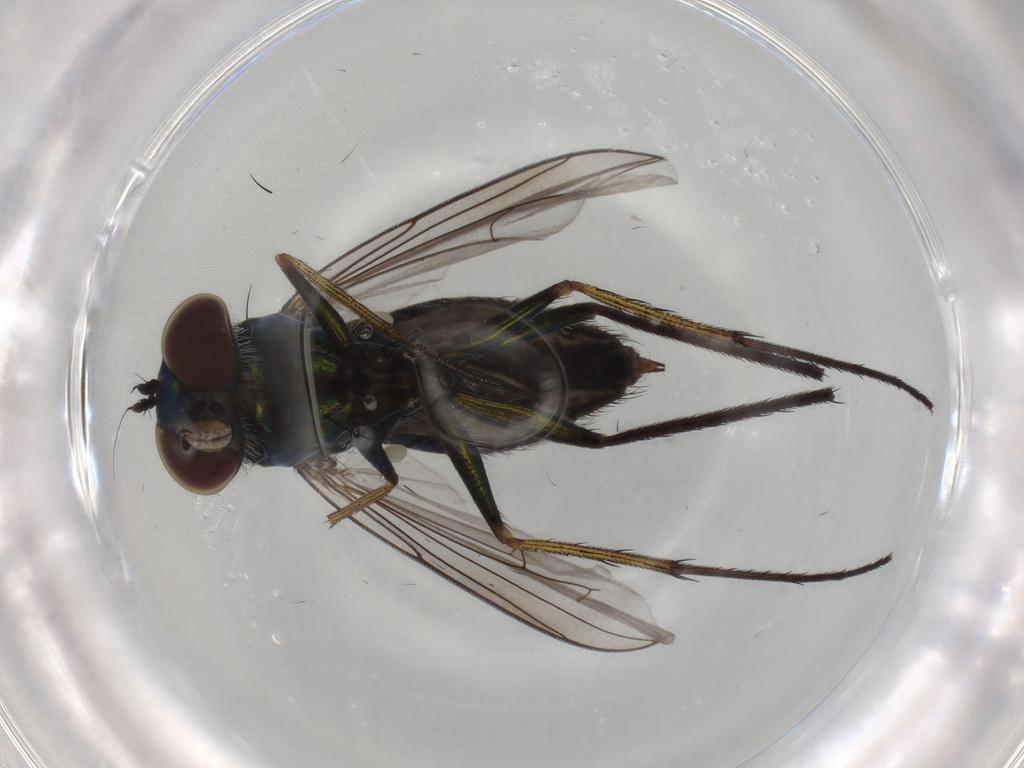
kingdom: Animalia
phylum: Arthropoda
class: Insecta
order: Diptera
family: Dolichopodidae
